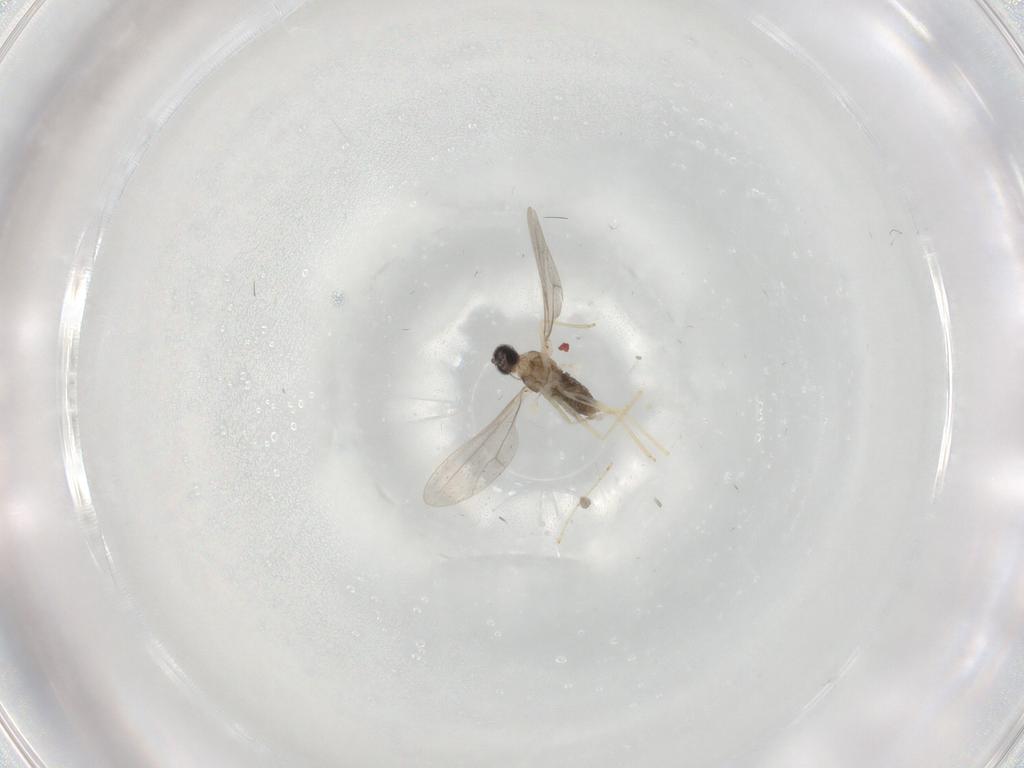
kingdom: Animalia
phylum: Arthropoda
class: Insecta
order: Diptera
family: Cecidomyiidae
